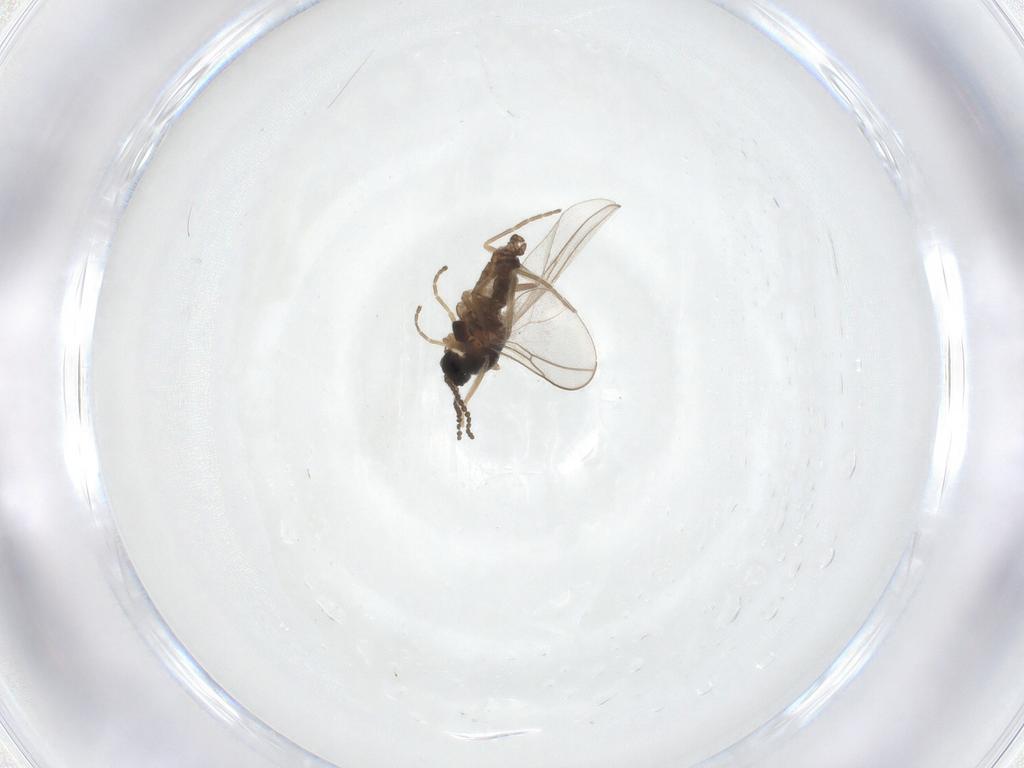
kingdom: Animalia
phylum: Arthropoda
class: Insecta
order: Diptera
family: Cecidomyiidae
